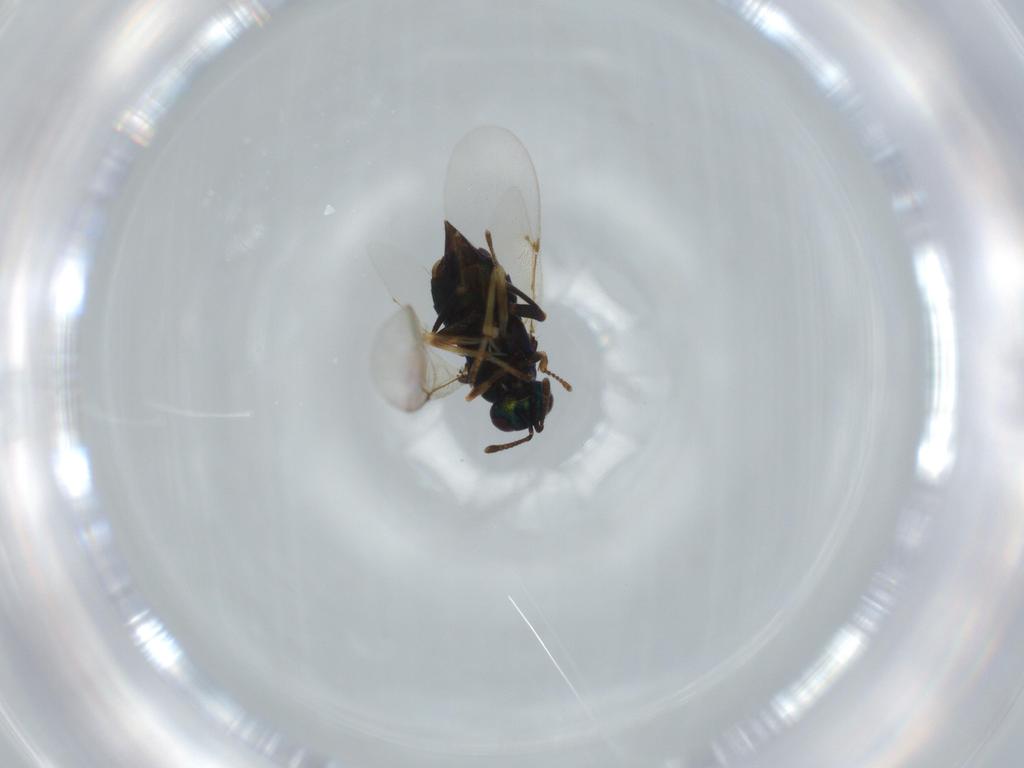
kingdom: Animalia
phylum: Arthropoda
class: Insecta
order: Hymenoptera
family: Encyrtidae
